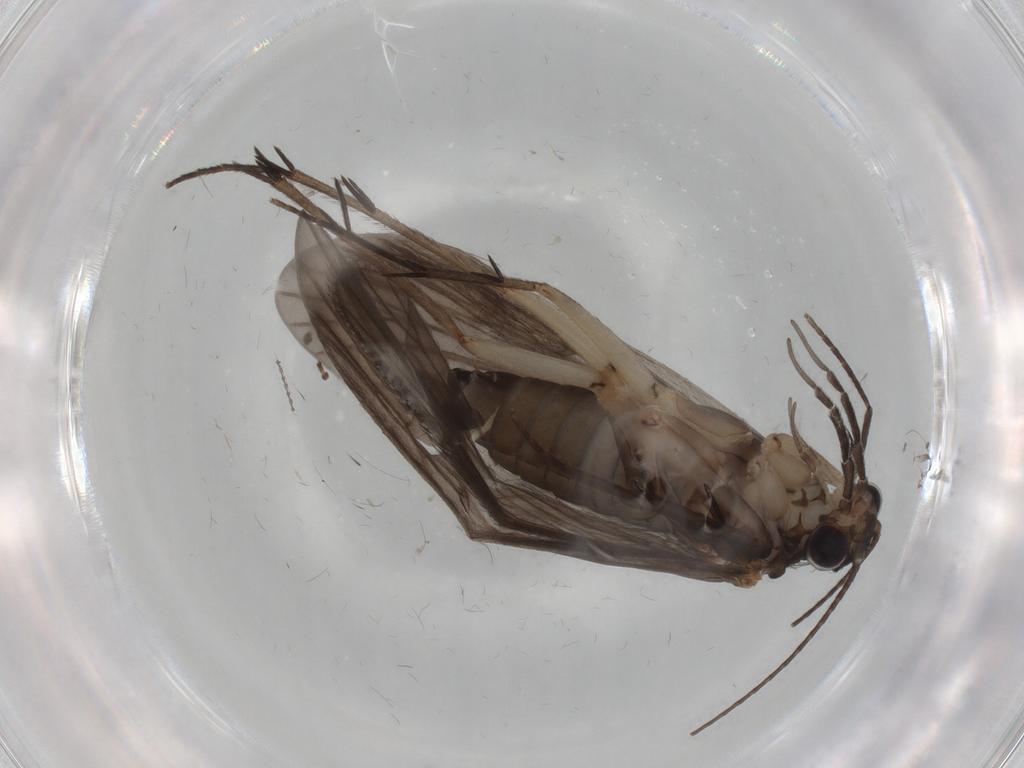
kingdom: Animalia
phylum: Arthropoda
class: Insecta
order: Trichoptera
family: Philopotamidae
